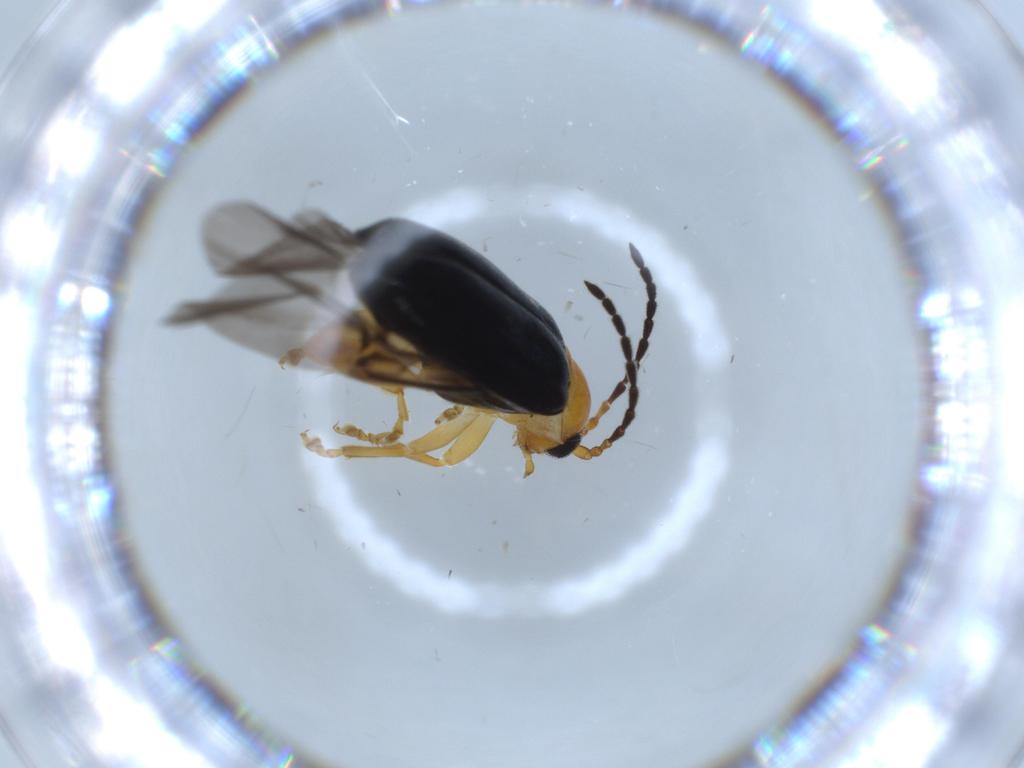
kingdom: Animalia
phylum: Arthropoda
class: Insecta
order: Coleoptera
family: Chrysomelidae
